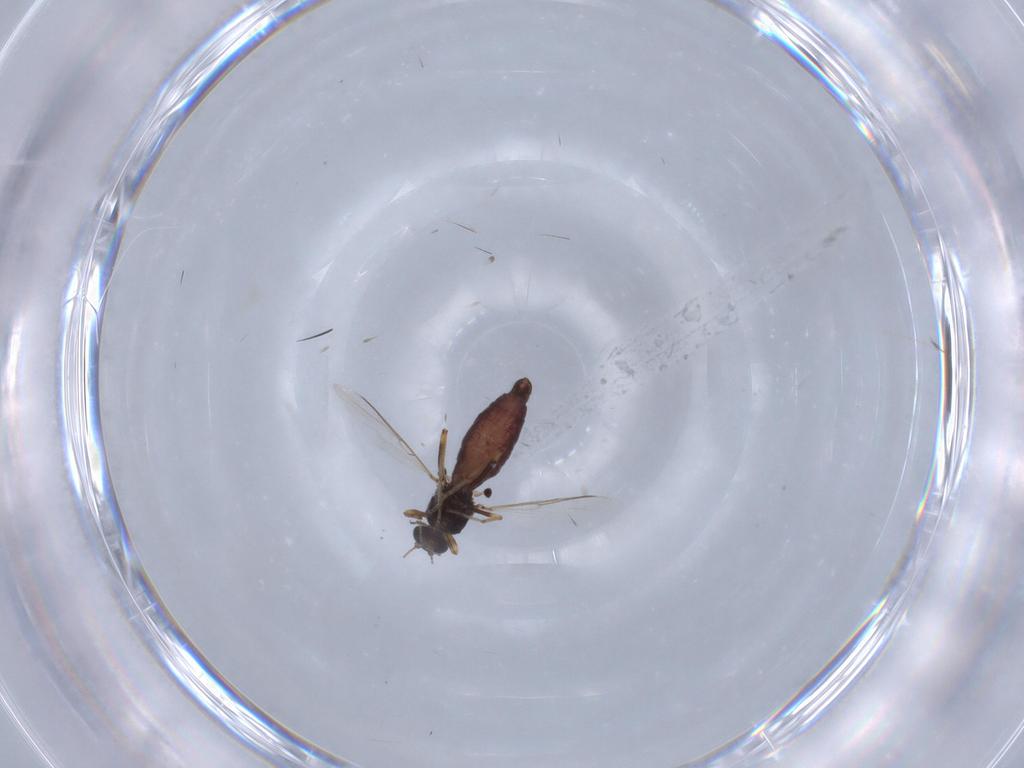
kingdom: Animalia
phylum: Arthropoda
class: Insecta
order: Diptera
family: Ceratopogonidae
